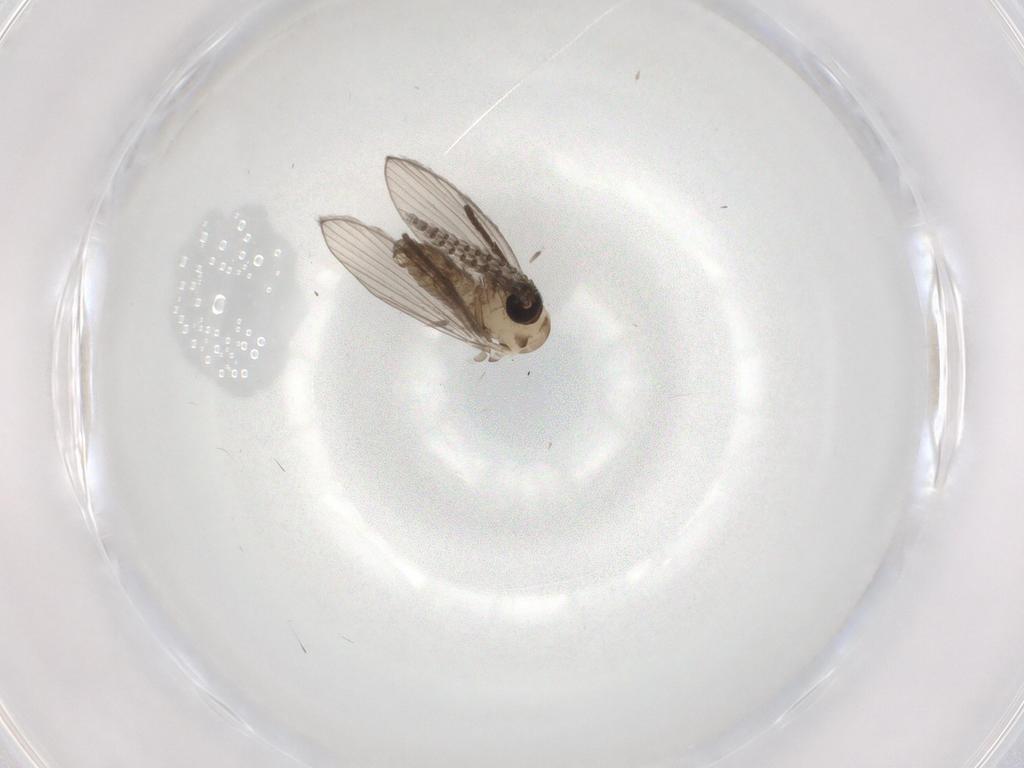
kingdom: Animalia
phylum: Arthropoda
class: Insecta
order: Diptera
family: Psychodidae
